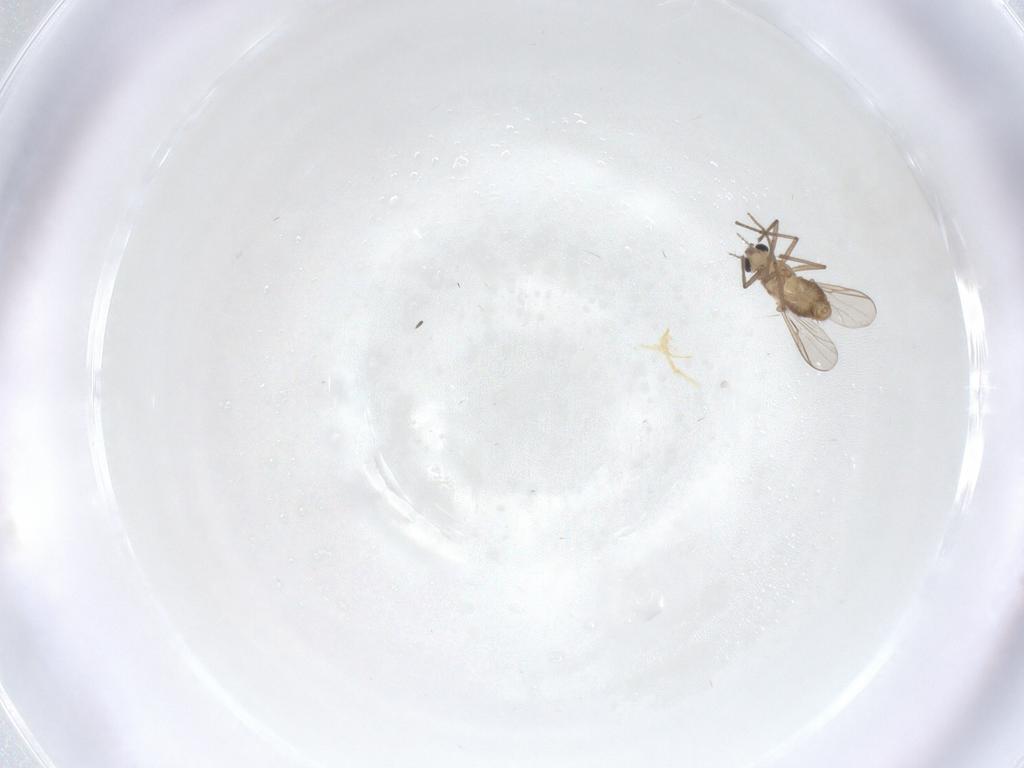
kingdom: Animalia
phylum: Arthropoda
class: Insecta
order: Diptera
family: Chironomidae
